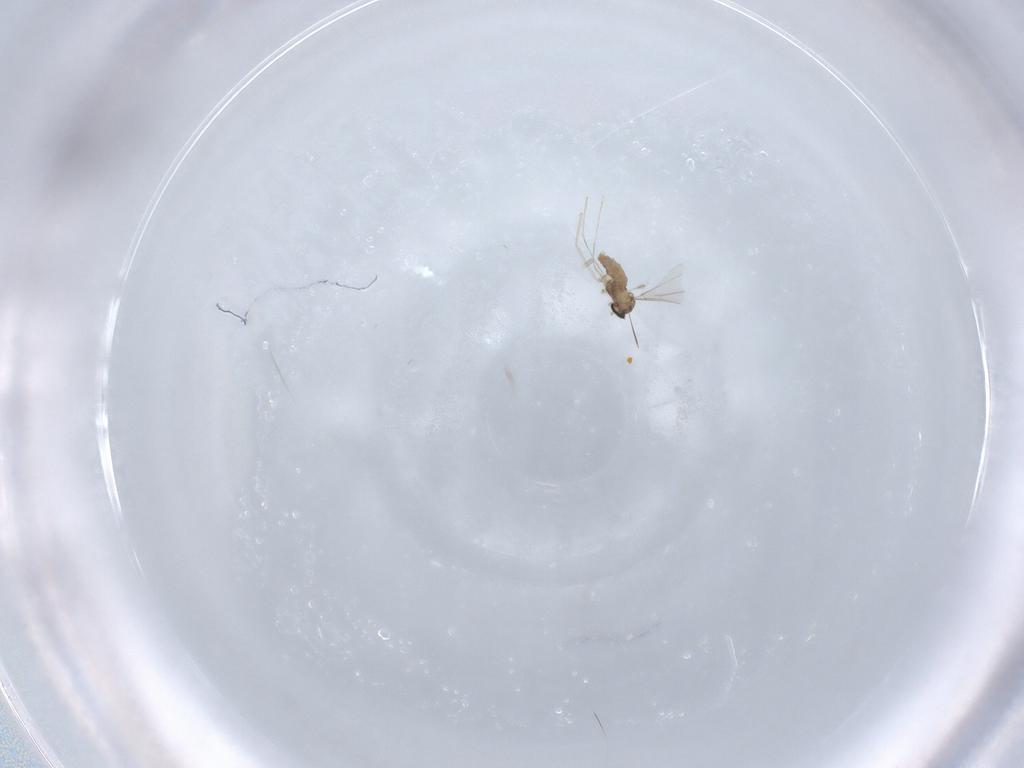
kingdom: Animalia
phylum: Arthropoda
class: Insecta
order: Diptera
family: Cecidomyiidae
